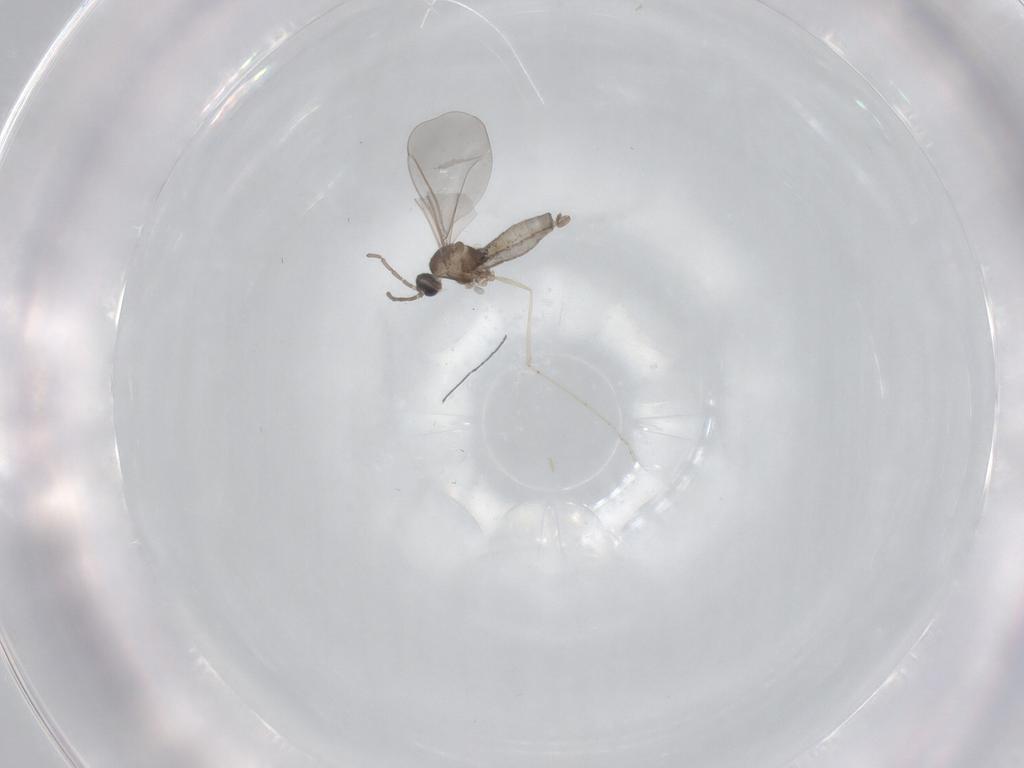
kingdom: Animalia
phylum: Arthropoda
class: Insecta
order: Diptera
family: Cecidomyiidae
